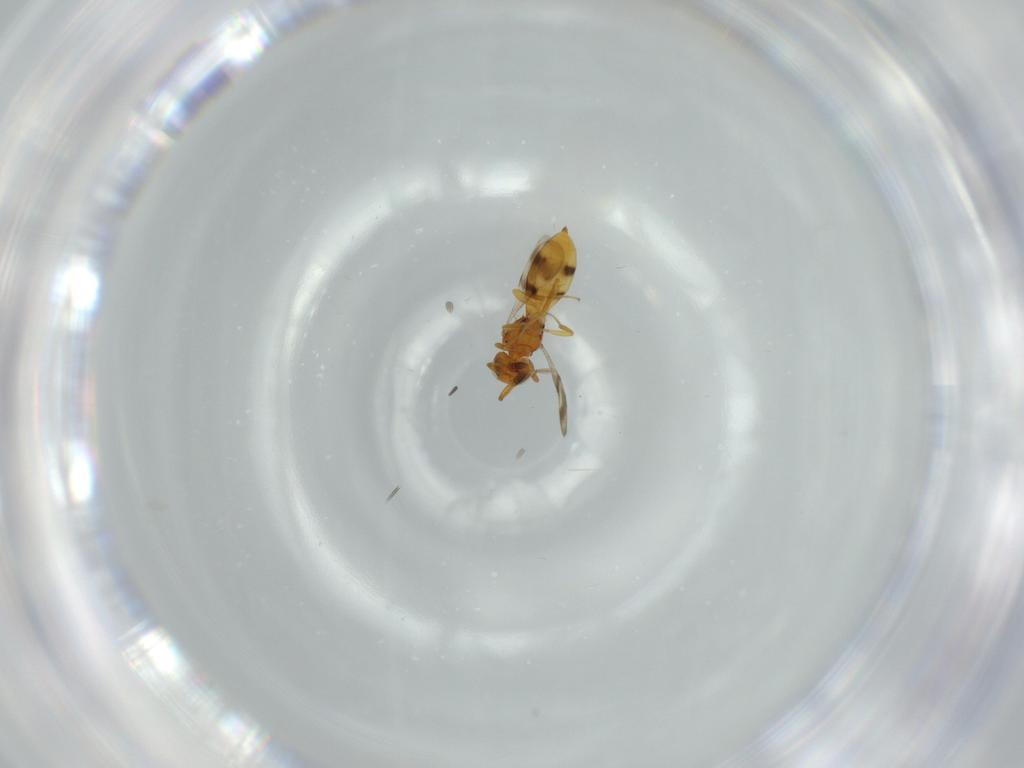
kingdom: Animalia
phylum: Arthropoda
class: Insecta
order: Hymenoptera
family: Scelionidae
